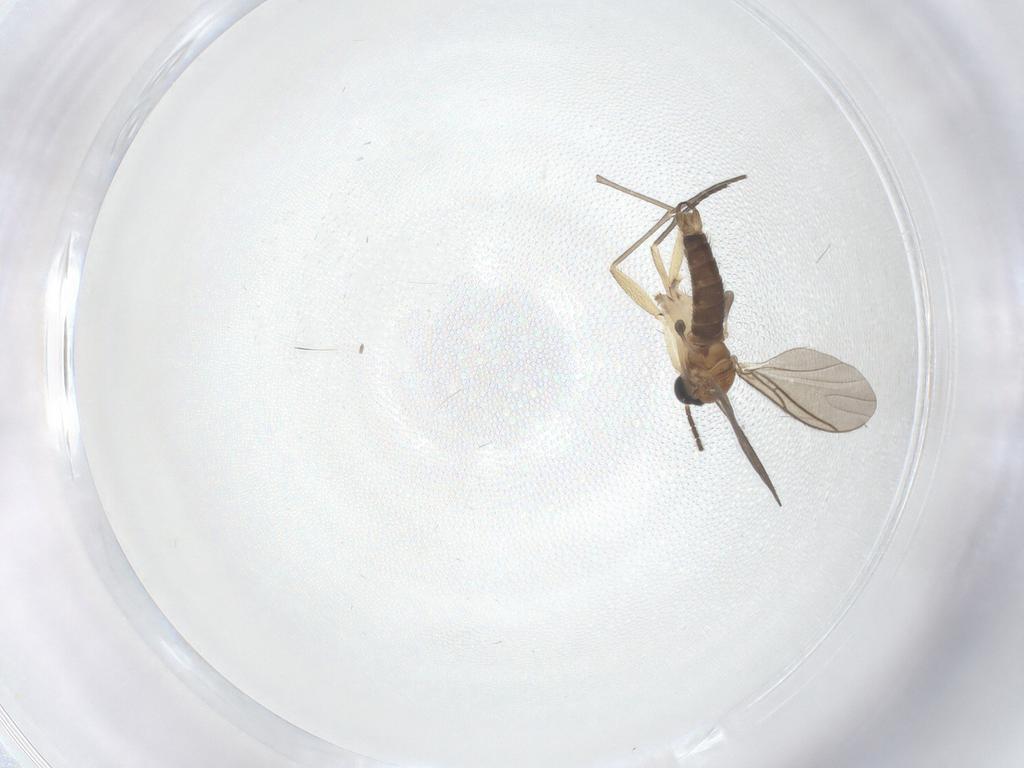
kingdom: Animalia
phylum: Arthropoda
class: Insecta
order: Diptera
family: Sciaridae
